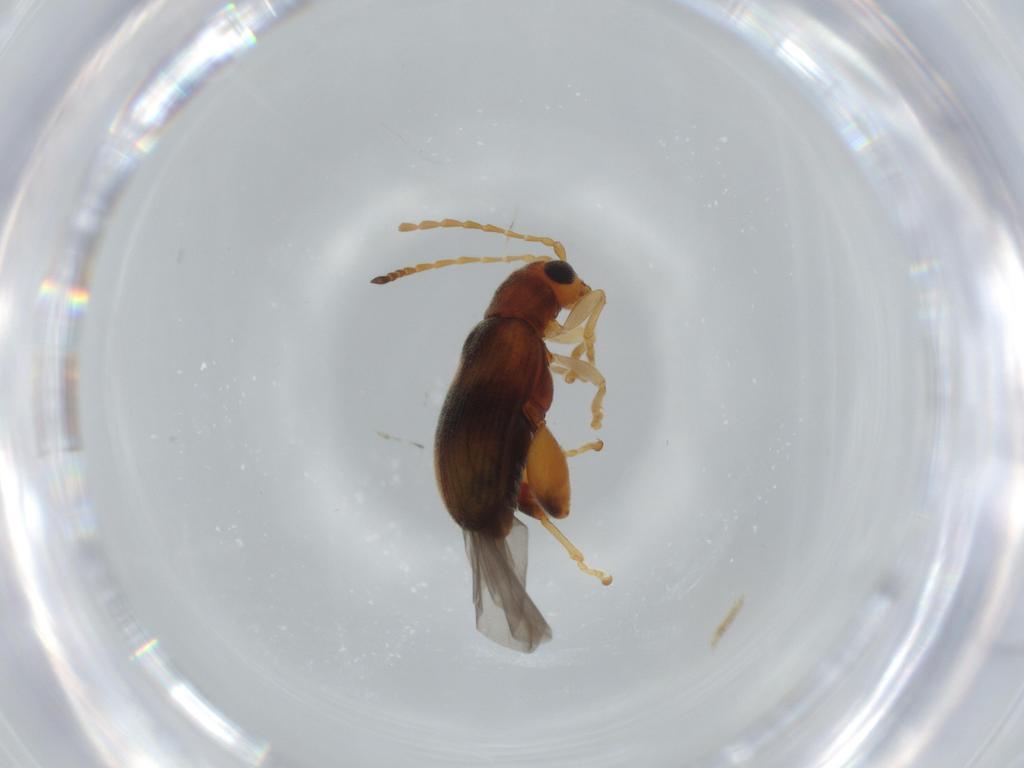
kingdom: Animalia
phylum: Arthropoda
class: Insecta
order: Coleoptera
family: Chrysomelidae
